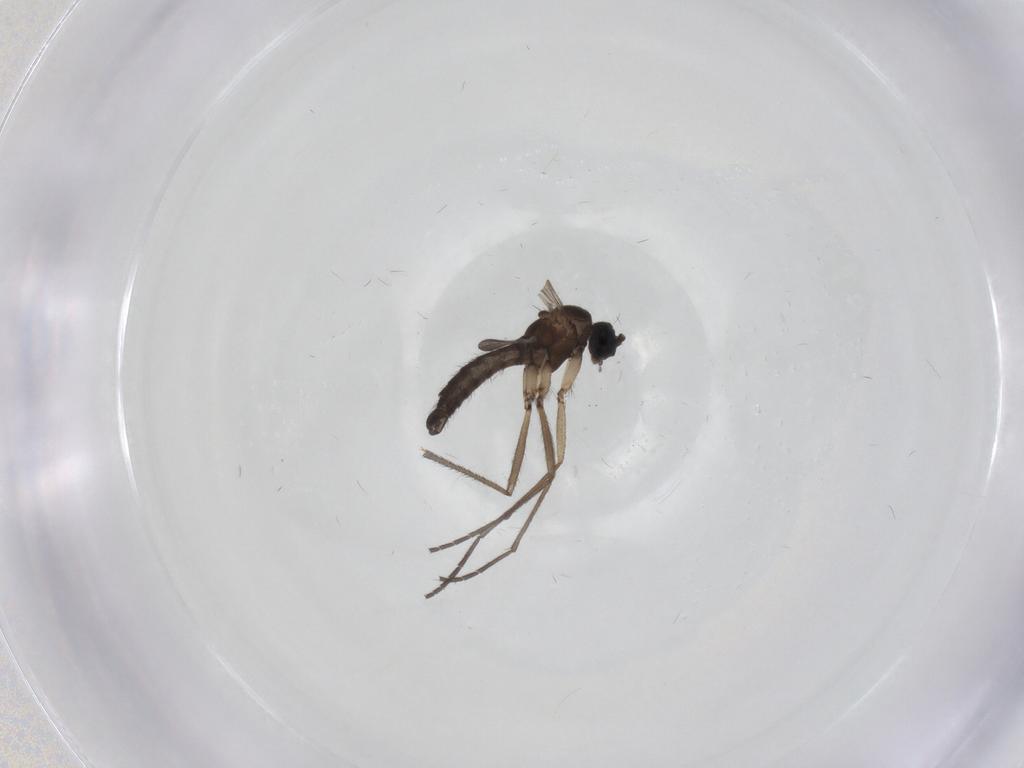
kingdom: Animalia
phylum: Arthropoda
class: Insecta
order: Diptera
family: Sciaridae
